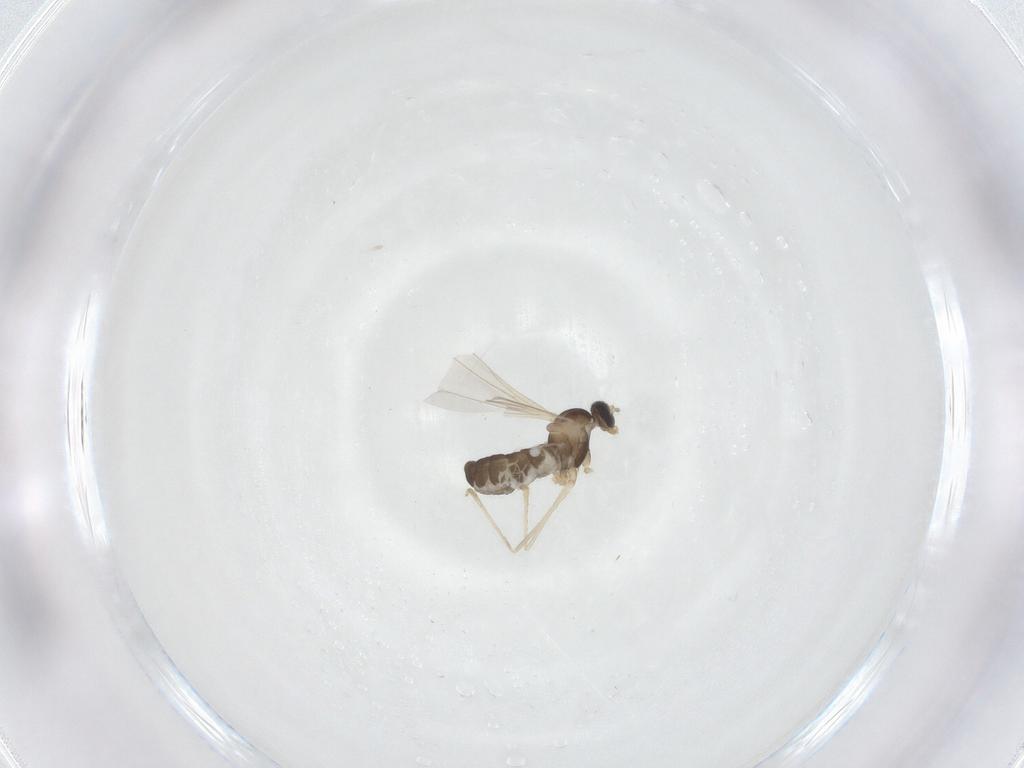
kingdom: Animalia
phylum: Arthropoda
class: Insecta
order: Diptera
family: Cecidomyiidae
